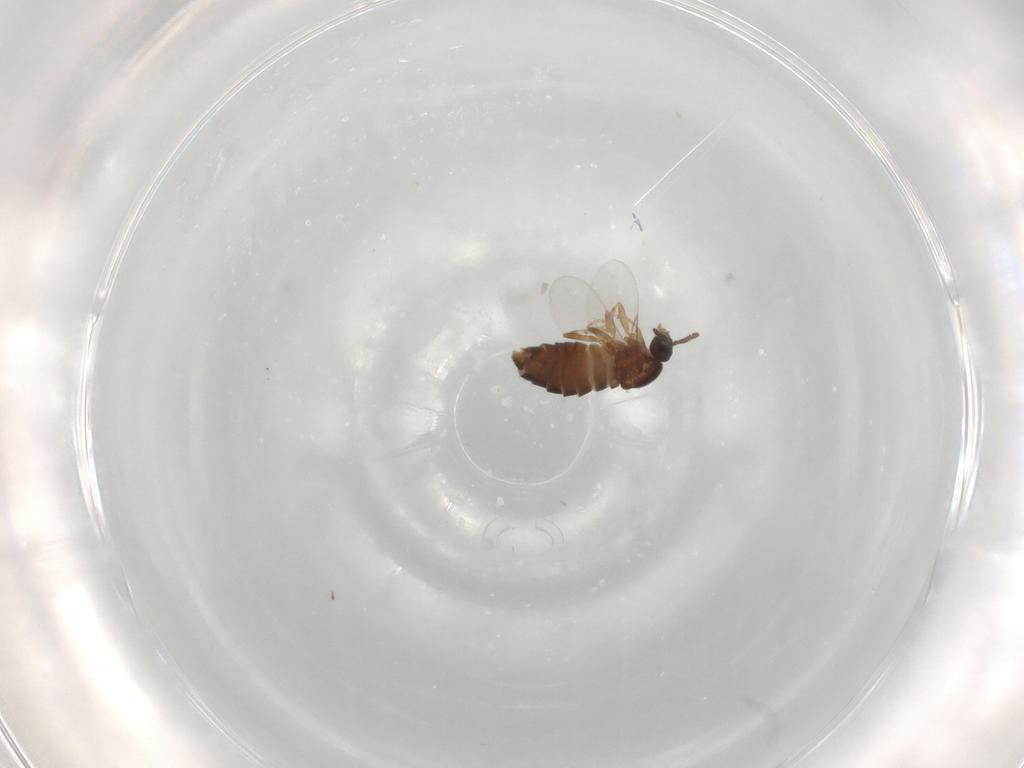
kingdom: Animalia
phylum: Arthropoda
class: Insecta
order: Diptera
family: Scatopsidae
